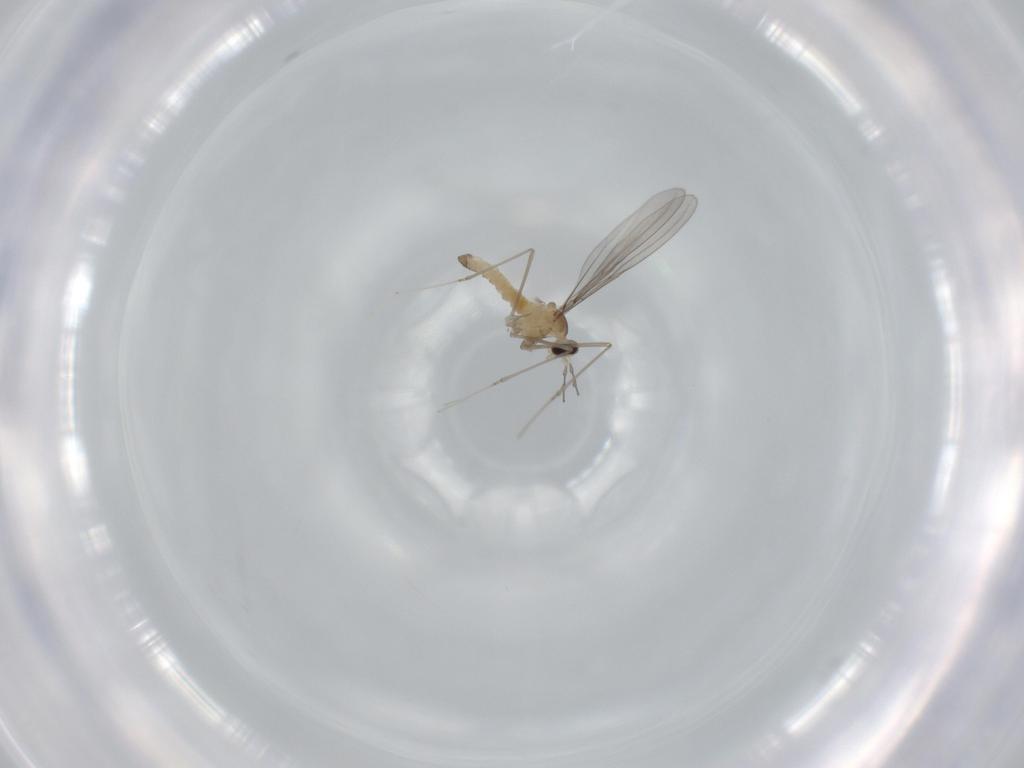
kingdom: Animalia
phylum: Arthropoda
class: Insecta
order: Diptera
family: Cecidomyiidae
